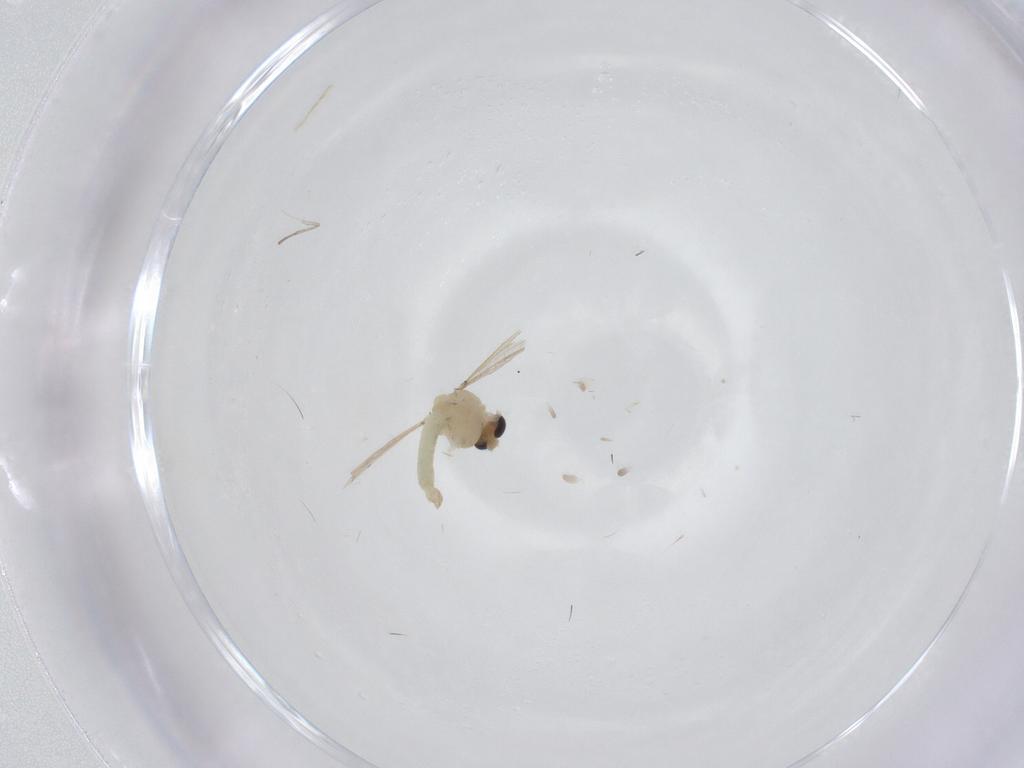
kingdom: Animalia
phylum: Arthropoda
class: Insecta
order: Diptera
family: Chironomidae
